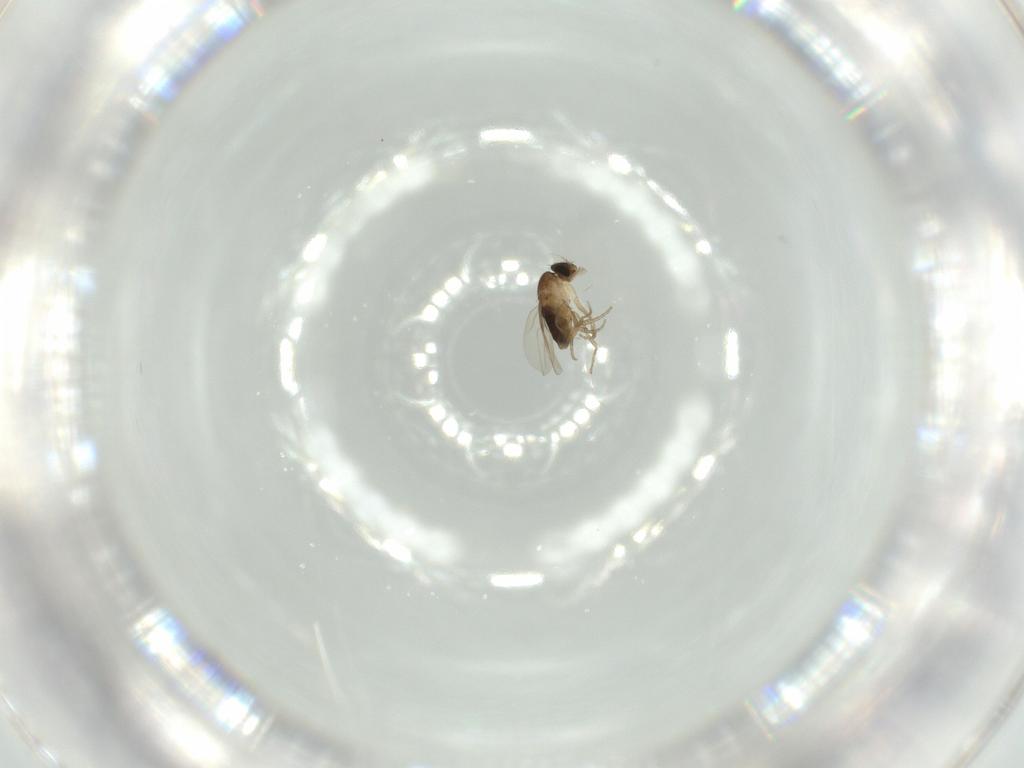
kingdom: Animalia
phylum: Arthropoda
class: Insecta
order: Diptera
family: Phoridae
